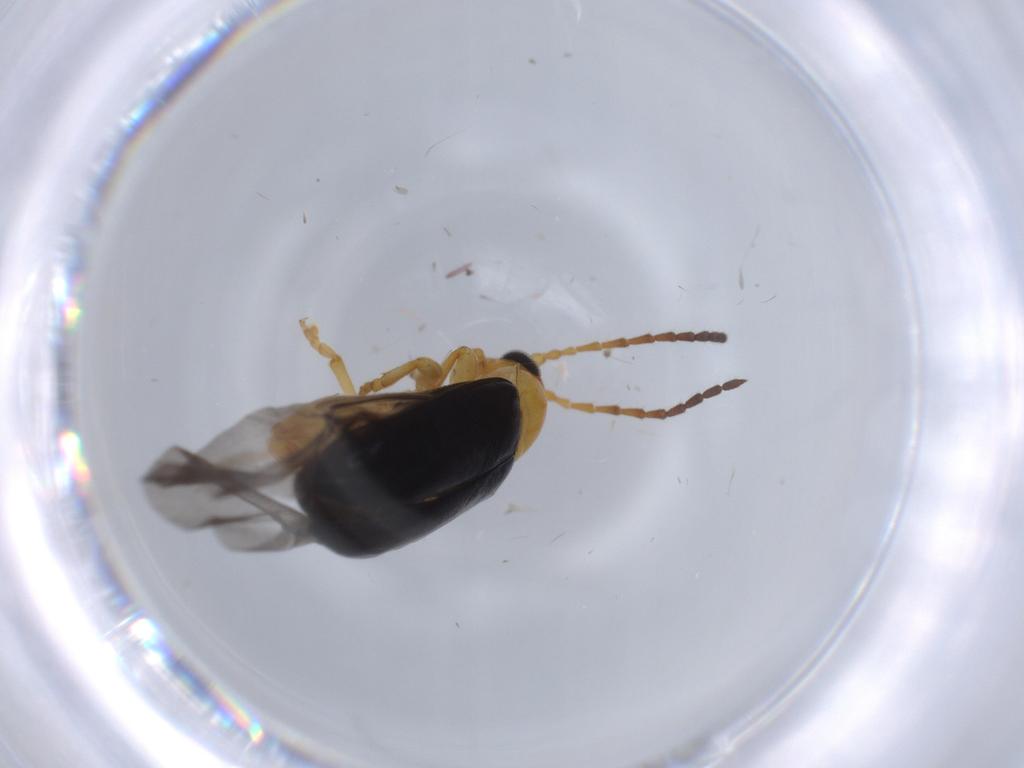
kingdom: Animalia
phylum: Arthropoda
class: Insecta
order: Coleoptera
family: Chrysomelidae
